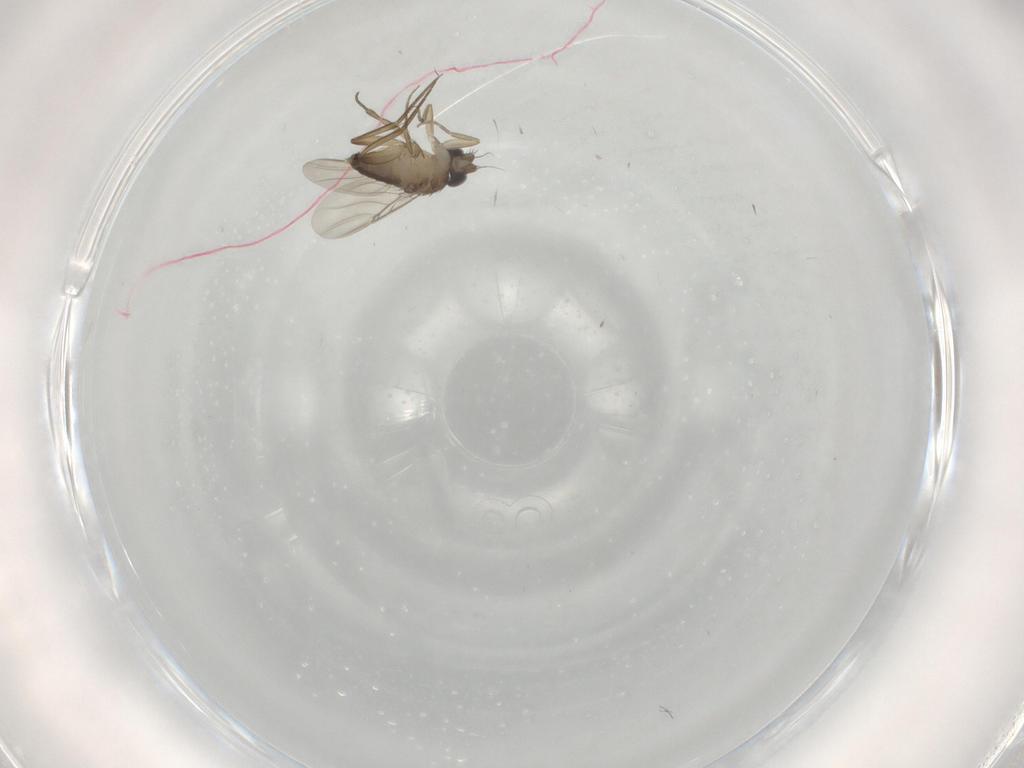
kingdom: Animalia
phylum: Arthropoda
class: Insecta
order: Diptera
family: Phoridae
